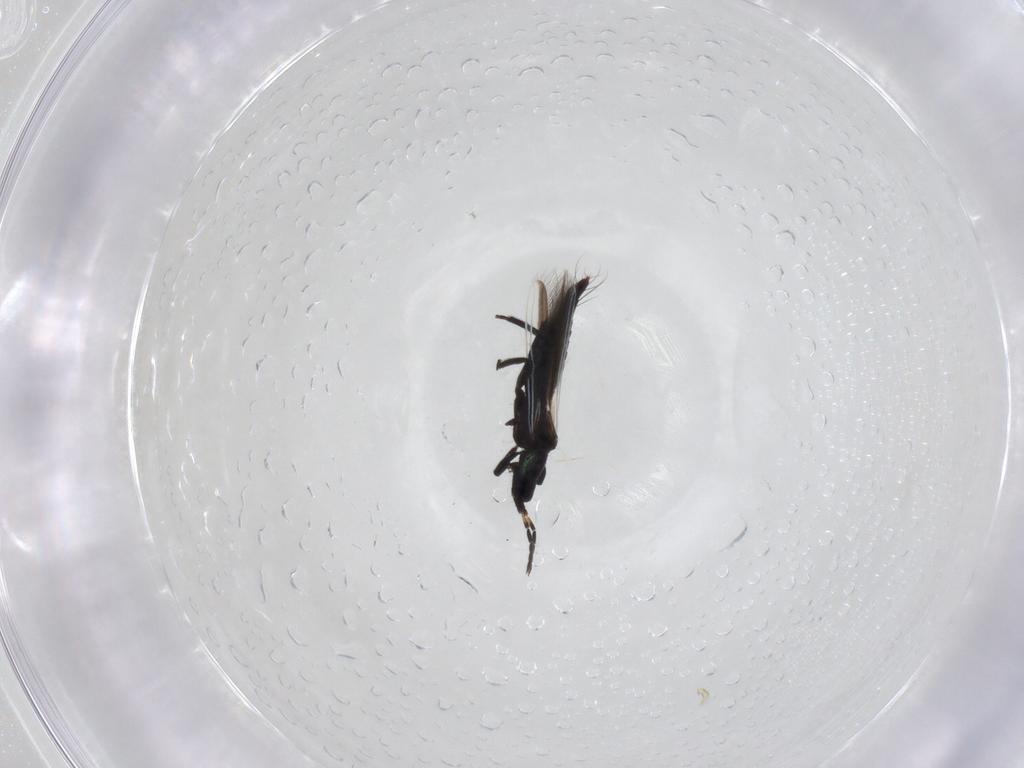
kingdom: Animalia
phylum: Arthropoda
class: Insecta
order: Thysanoptera
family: Aeolothripidae
